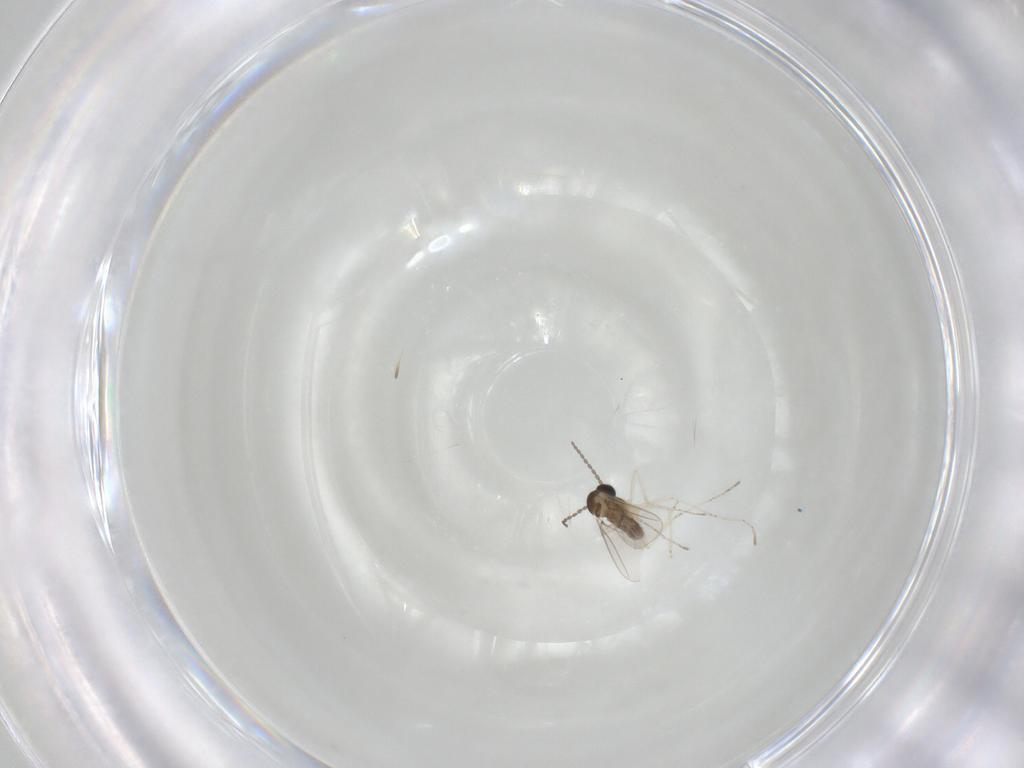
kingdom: Animalia
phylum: Arthropoda
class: Insecta
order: Diptera
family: Cecidomyiidae
